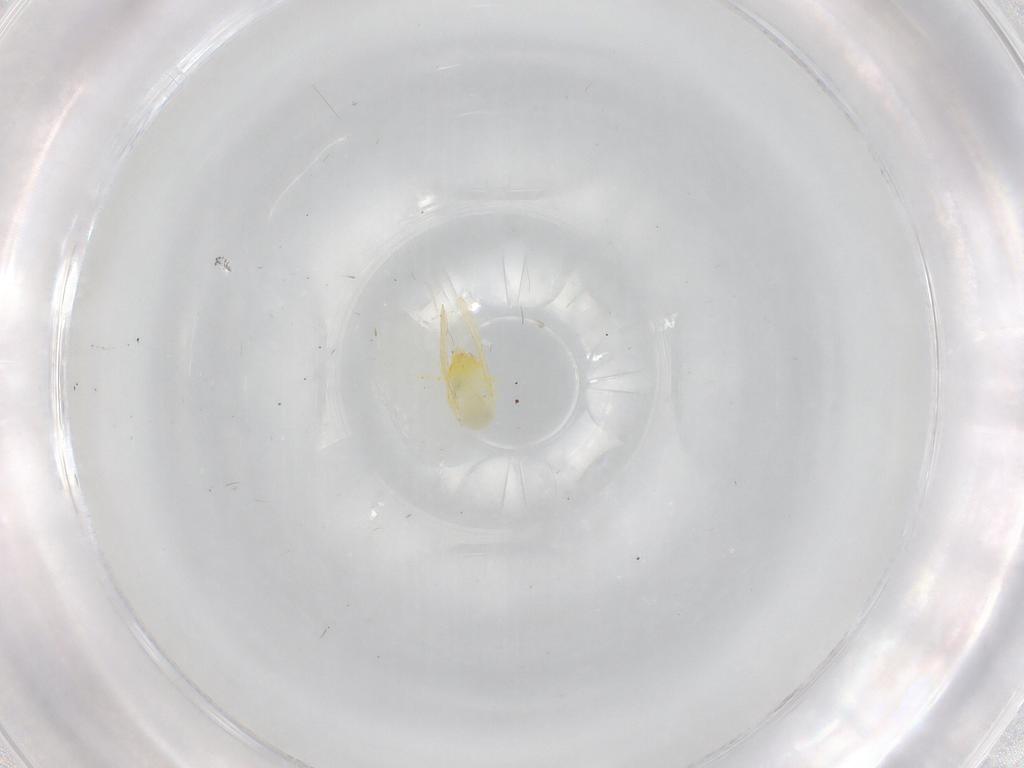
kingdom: Animalia
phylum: Arthropoda
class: Insecta
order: Hemiptera
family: Aleyrodidae
